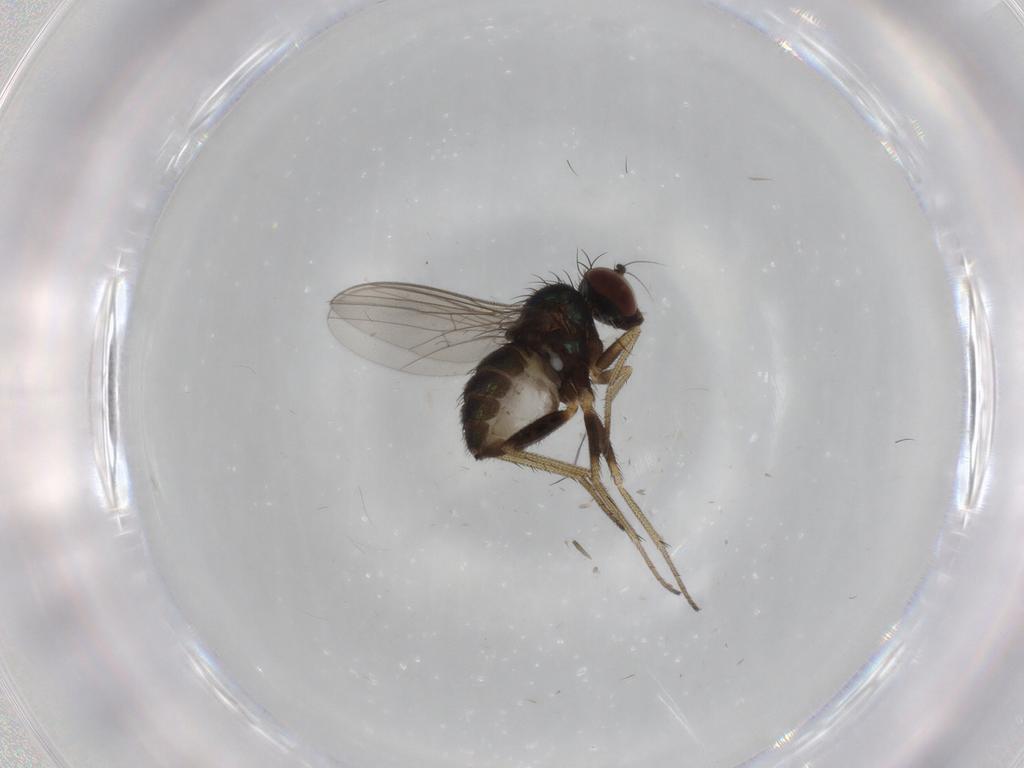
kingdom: Animalia
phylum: Arthropoda
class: Insecta
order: Diptera
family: Dolichopodidae
